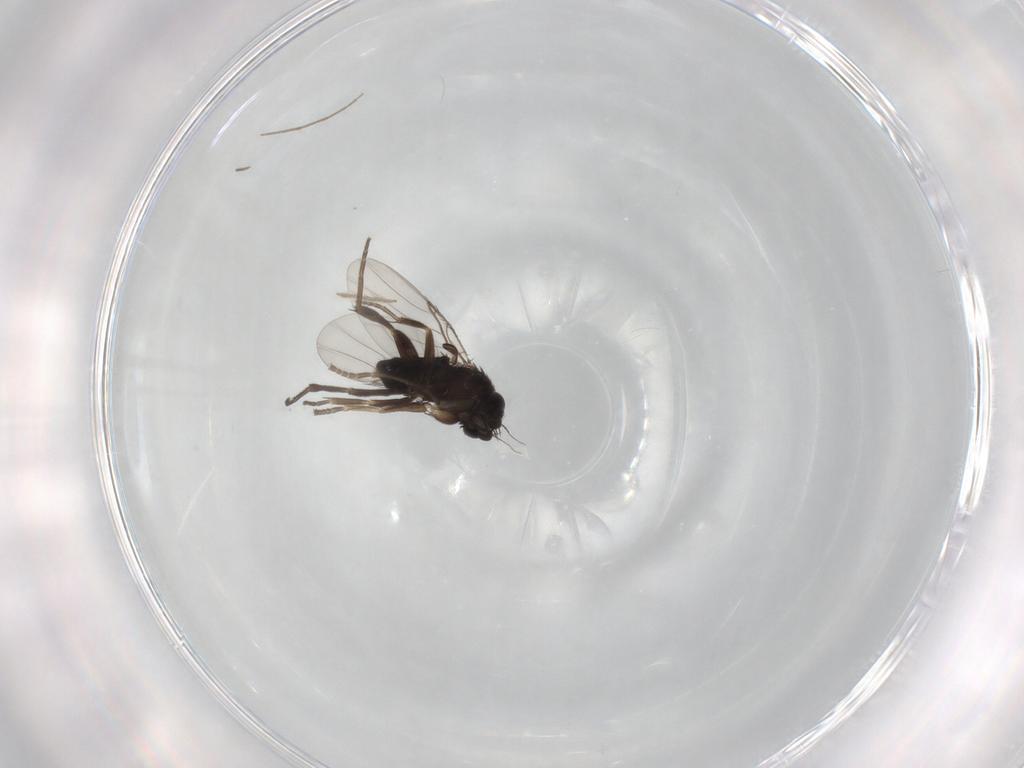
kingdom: Animalia
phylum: Arthropoda
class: Insecta
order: Diptera
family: Phoridae
